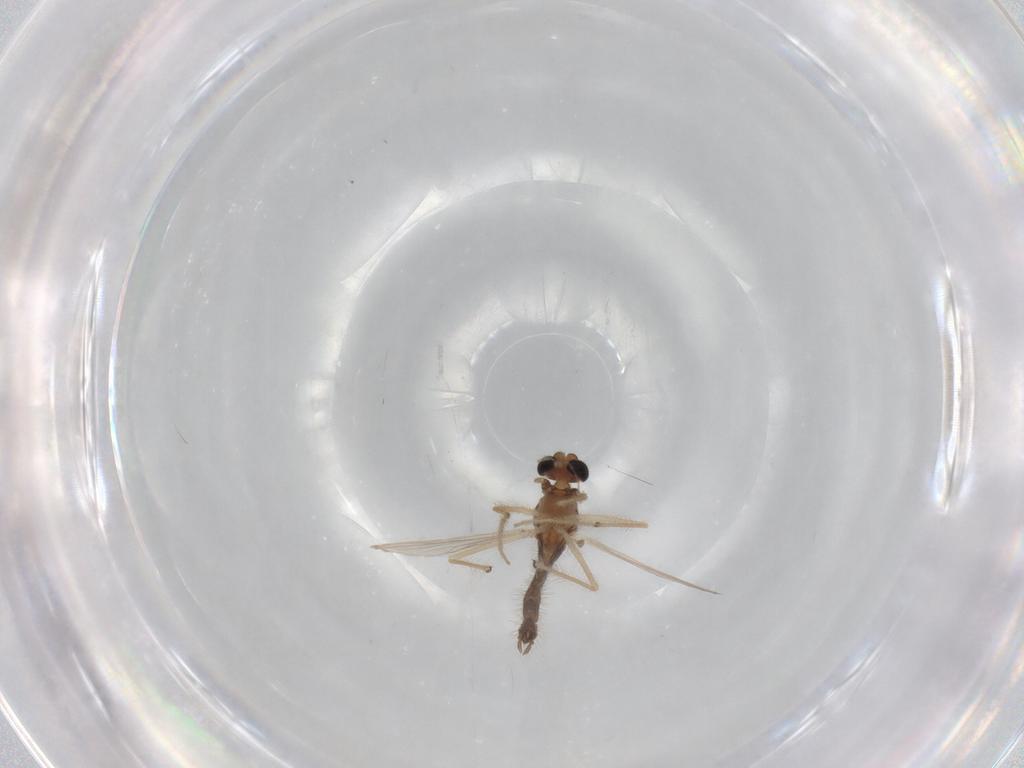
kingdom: Animalia
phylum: Arthropoda
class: Insecta
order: Diptera
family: Chironomidae
